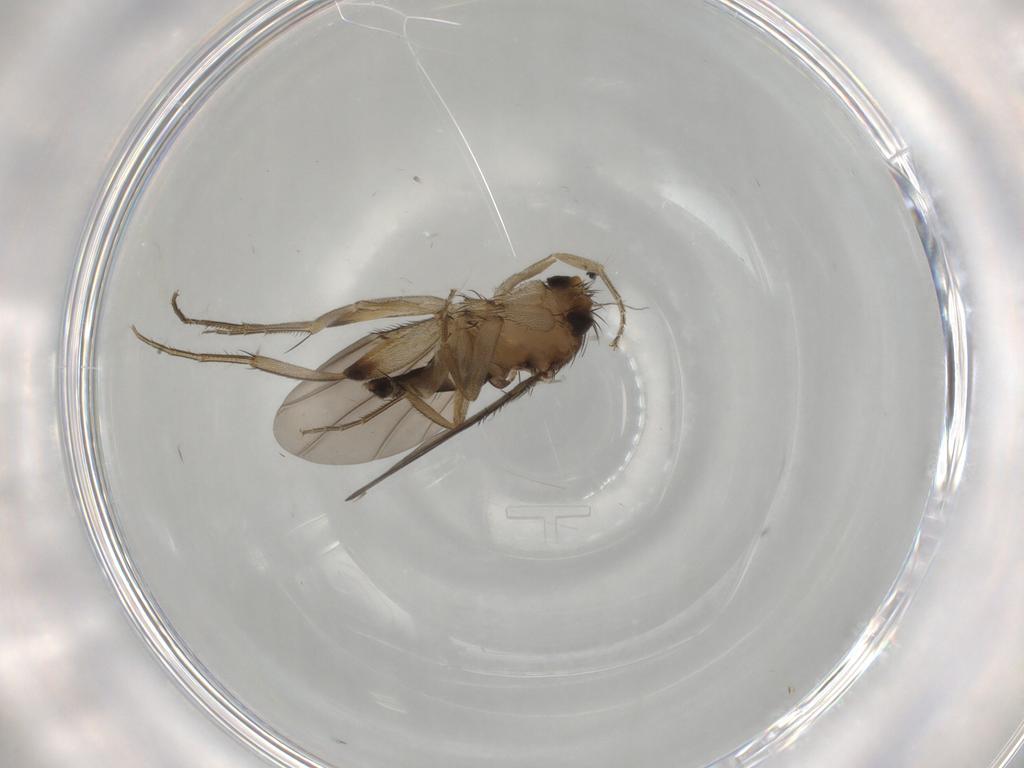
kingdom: Animalia
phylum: Arthropoda
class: Insecta
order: Diptera
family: Phoridae
